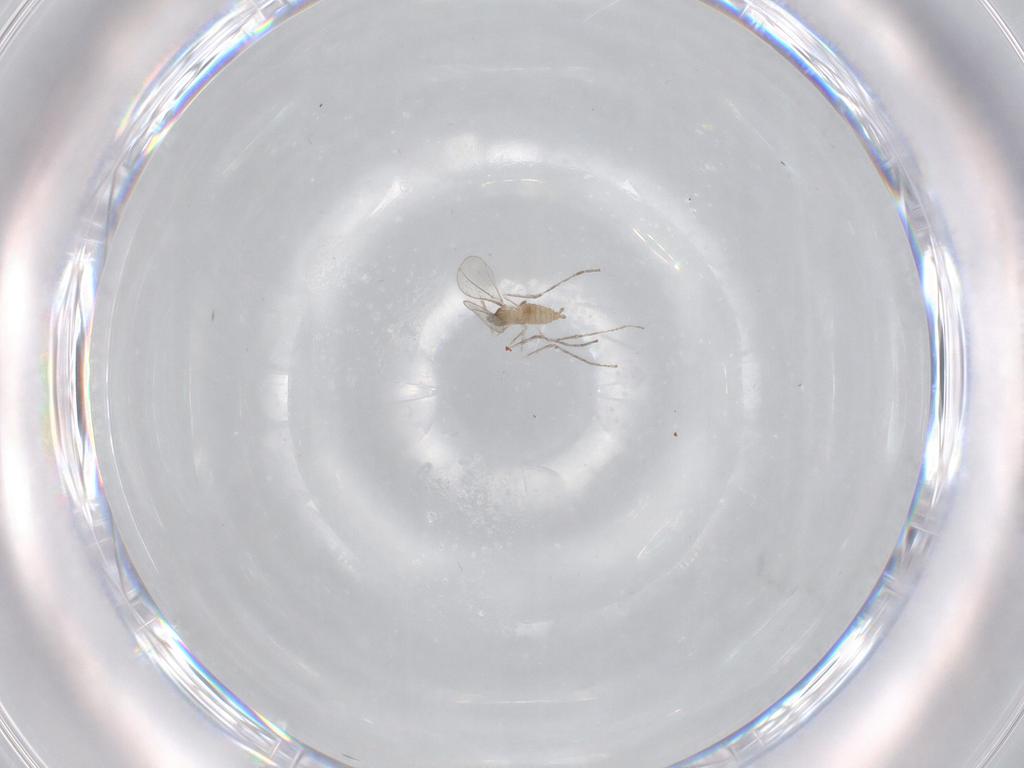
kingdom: Animalia
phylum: Arthropoda
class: Insecta
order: Diptera
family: Cecidomyiidae
